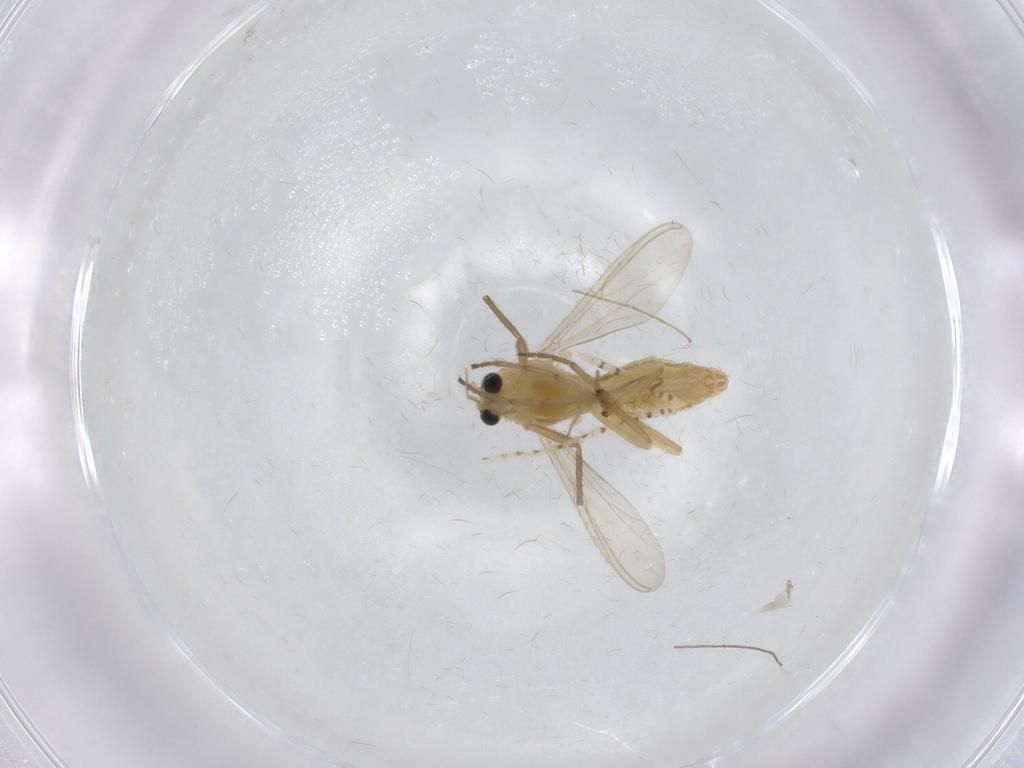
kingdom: Animalia
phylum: Arthropoda
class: Insecta
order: Diptera
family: Chironomidae
